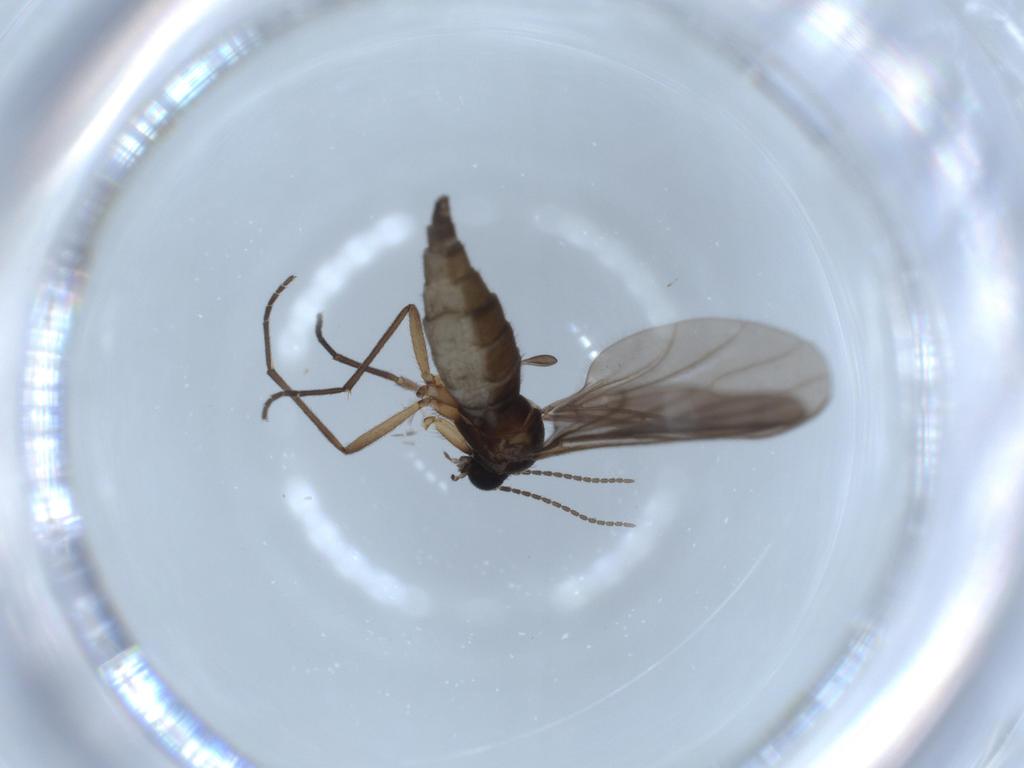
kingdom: Animalia
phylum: Arthropoda
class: Insecta
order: Diptera
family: Sciaridae
